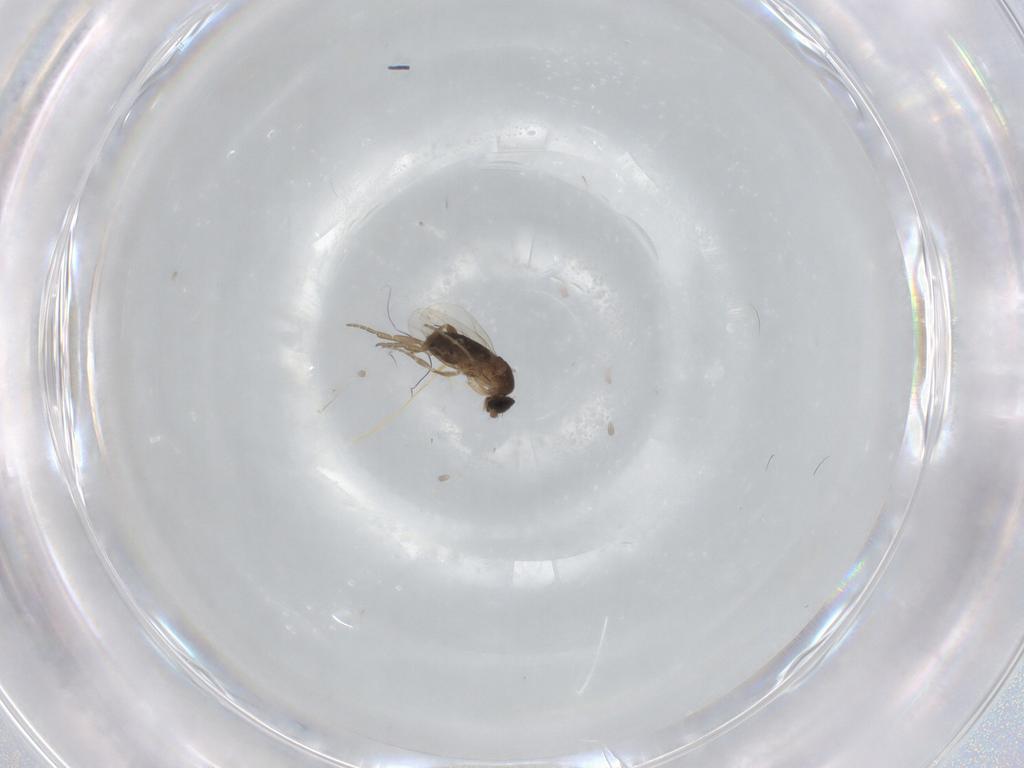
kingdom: Animalia
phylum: Arthropoda
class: Insecta
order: Diptera
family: Phoridae
